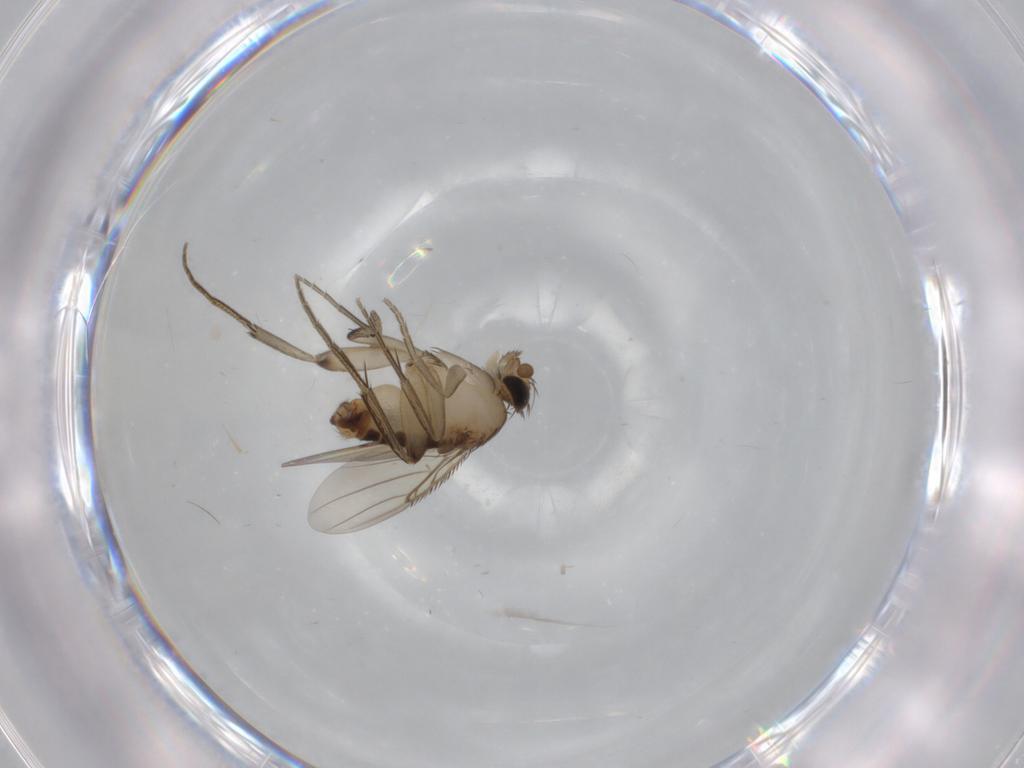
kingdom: Animalia
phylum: Arthropoda
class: Insecta
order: Diptera
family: Phoridae
